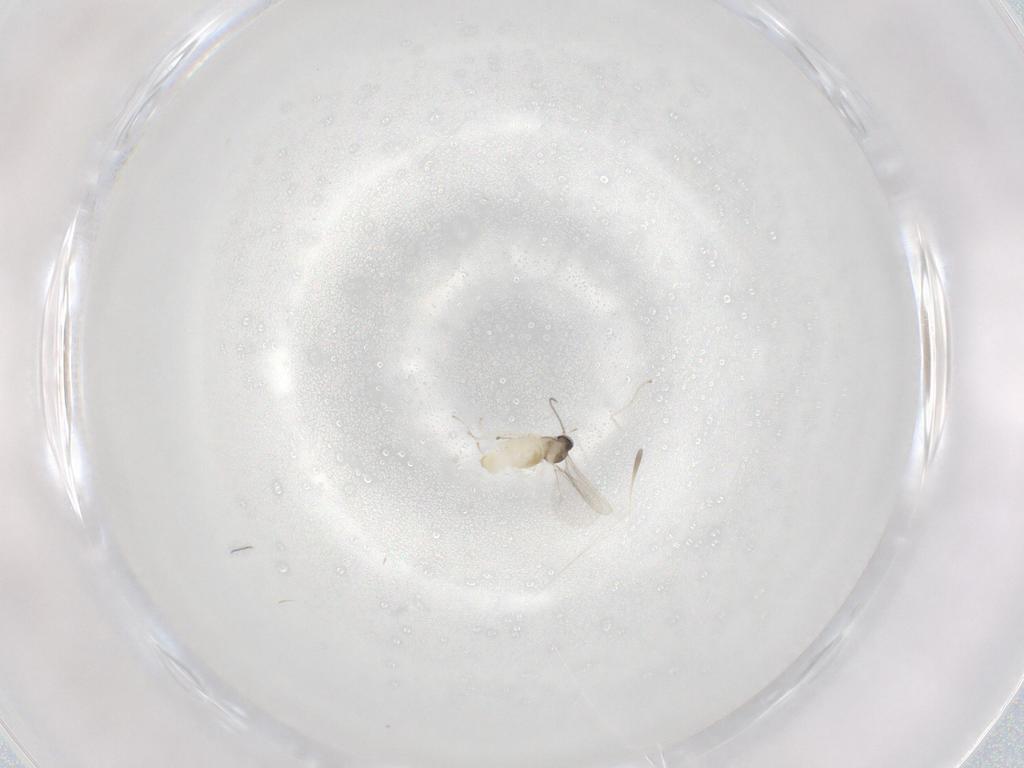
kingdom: Animalia
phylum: Arthropoda
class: Insecta
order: Diptera
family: Cecidomyiidae
